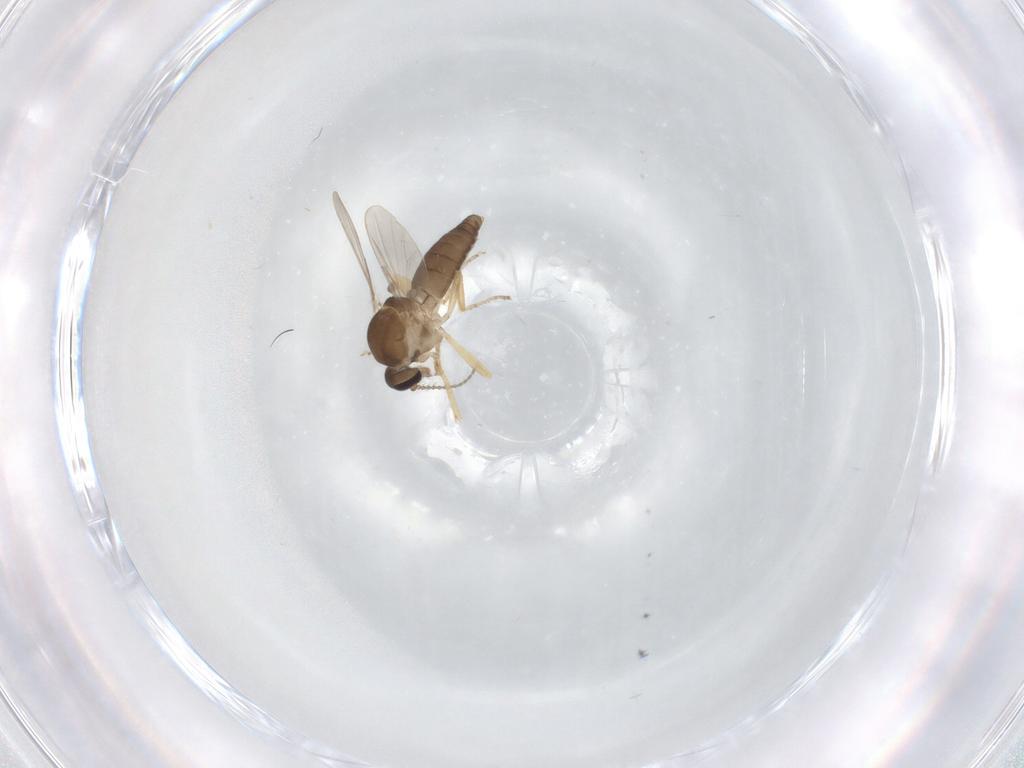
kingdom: Animalia
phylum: Arthropoda
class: Insecta
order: Diptera
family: Ceratopogonidae
